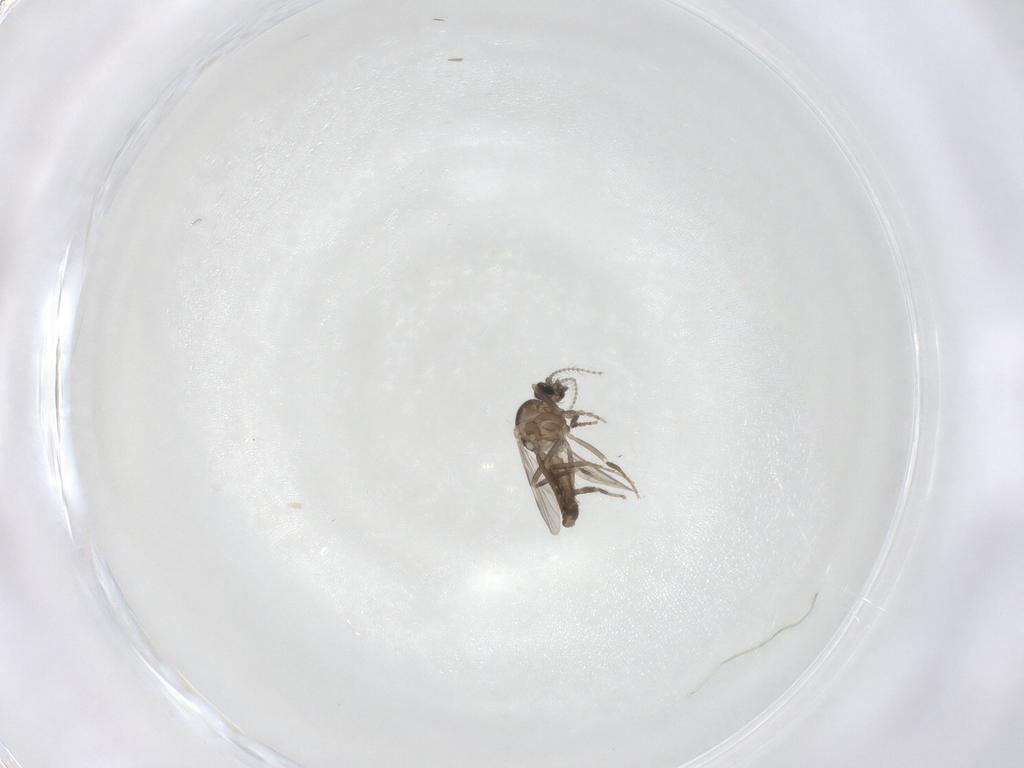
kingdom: Animalia
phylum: Arthropoda
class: Insecta
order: Diptera
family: Ceratopogonidae
